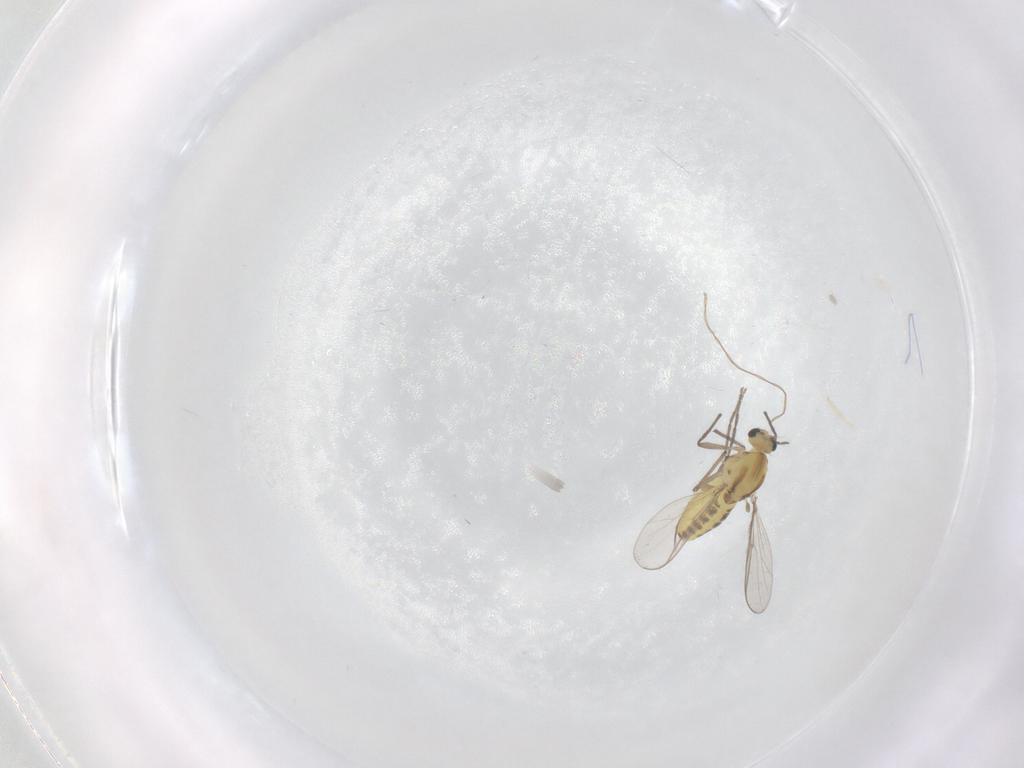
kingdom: Animalia
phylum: Arthropoda
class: Insecta
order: Diptera
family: Chironomidae
